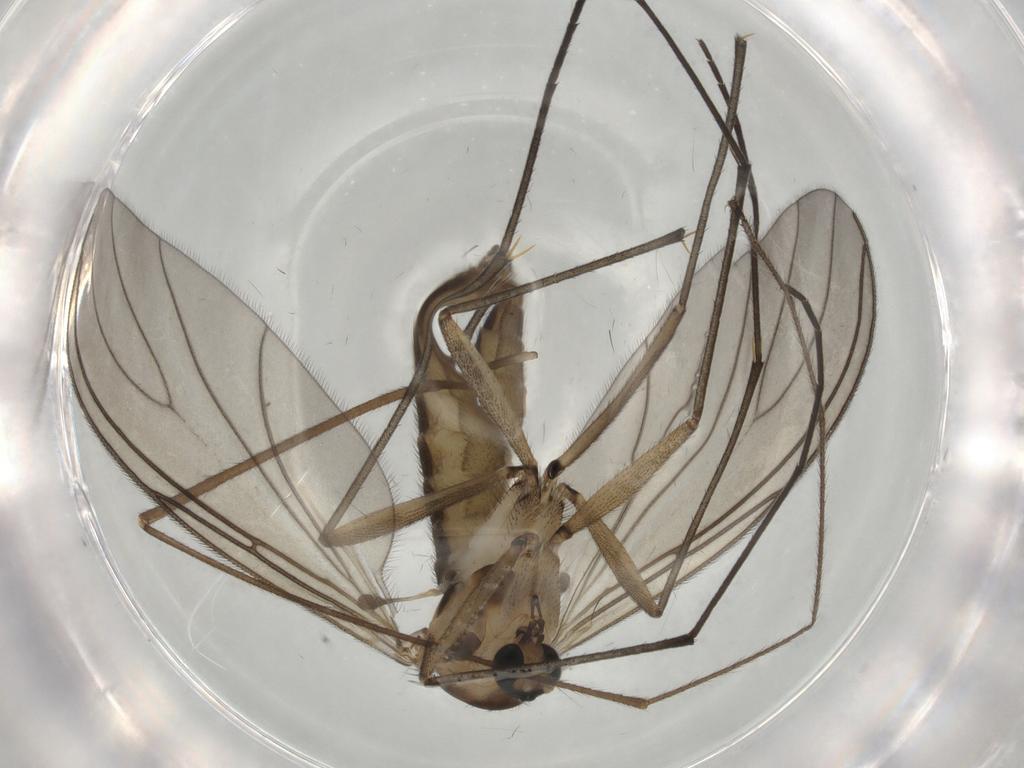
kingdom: Animalia
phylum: Arthropoda
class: Insecta
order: Diptera
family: Sciaridae
